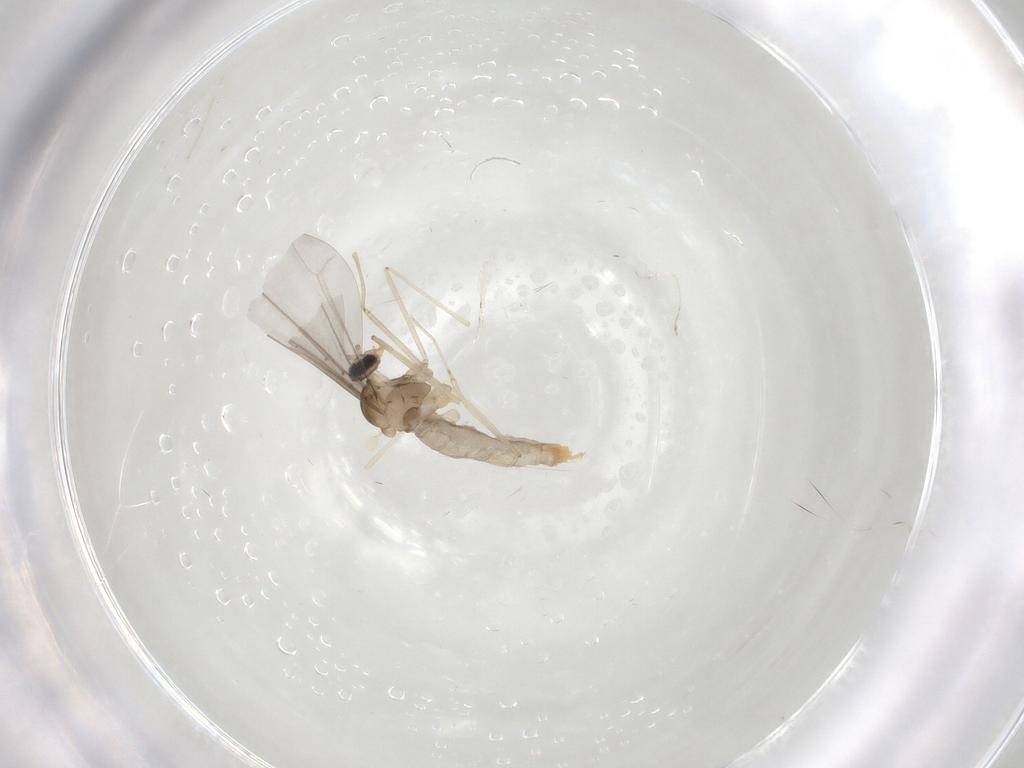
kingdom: Animalia
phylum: Arthropoda
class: Insecta
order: Diptera
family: Cecidomyiidae
